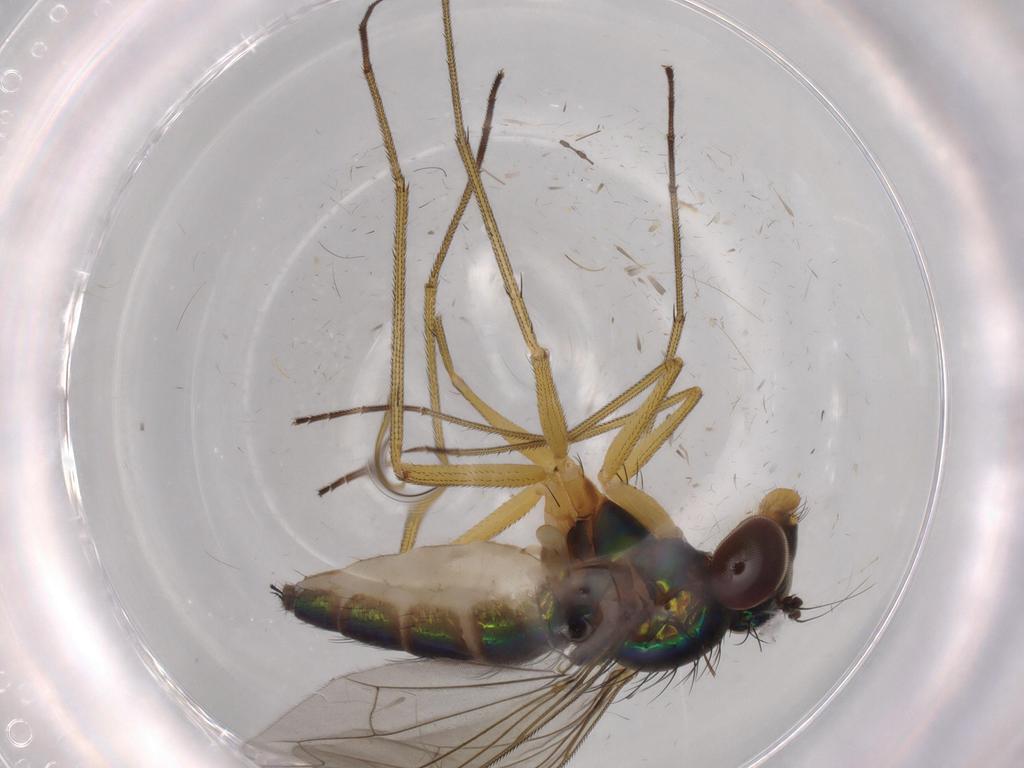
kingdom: Animalia
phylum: Arthropoda
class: Insecta
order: Diptera
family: Dolichopodidae
